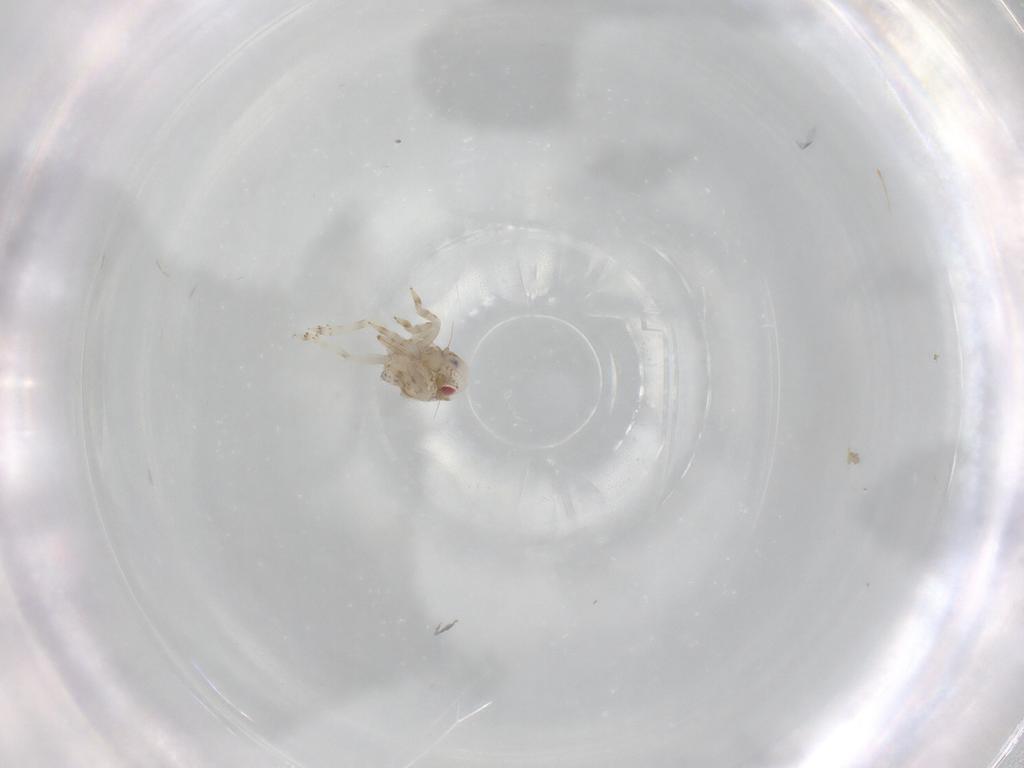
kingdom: Animalia
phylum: Arthropoda
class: Insecta
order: Hemiptera
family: Acanaloniidae
